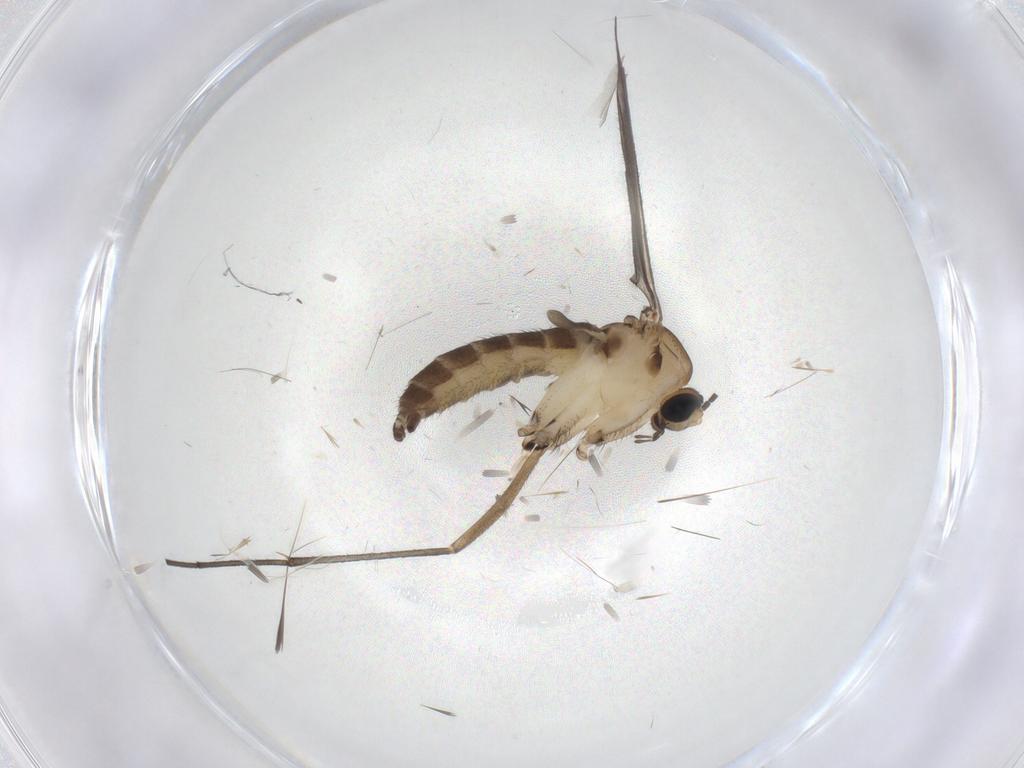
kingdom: Animalia
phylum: Arthropoda
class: Insecta
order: Diptera
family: Sciaridae
